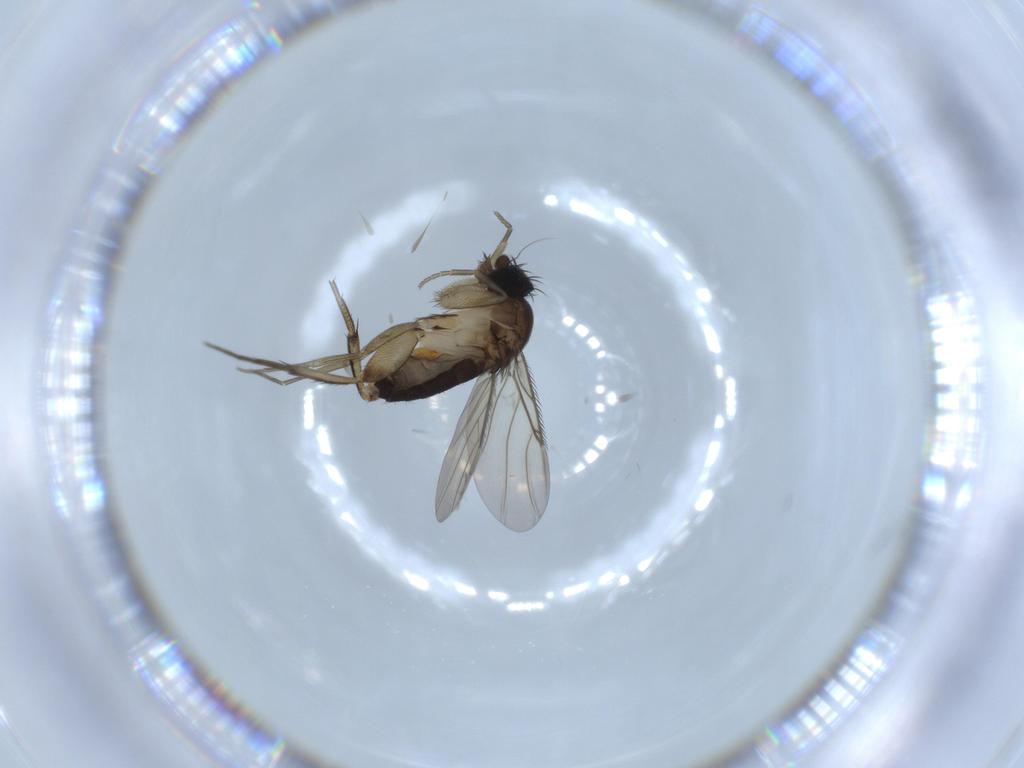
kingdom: Animalia
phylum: Arthropoda
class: Insecta
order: Diptera
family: Phoridae
